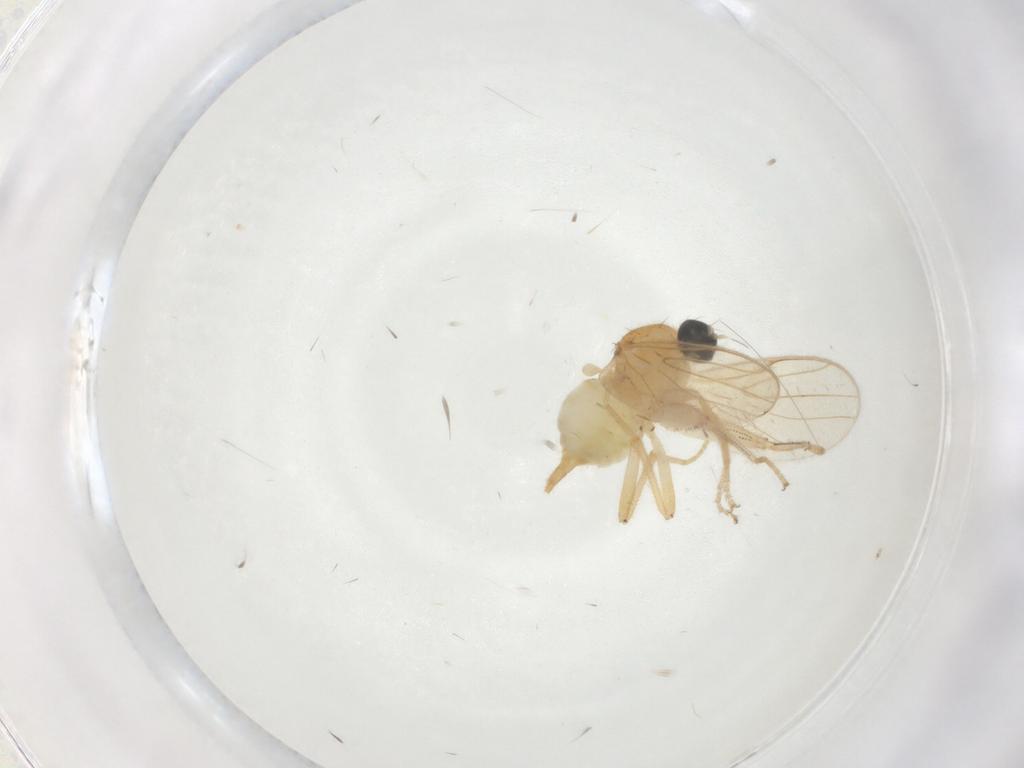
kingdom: Animalia
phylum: Arthropoda
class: Insecta
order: Diptera
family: Hybotidae
